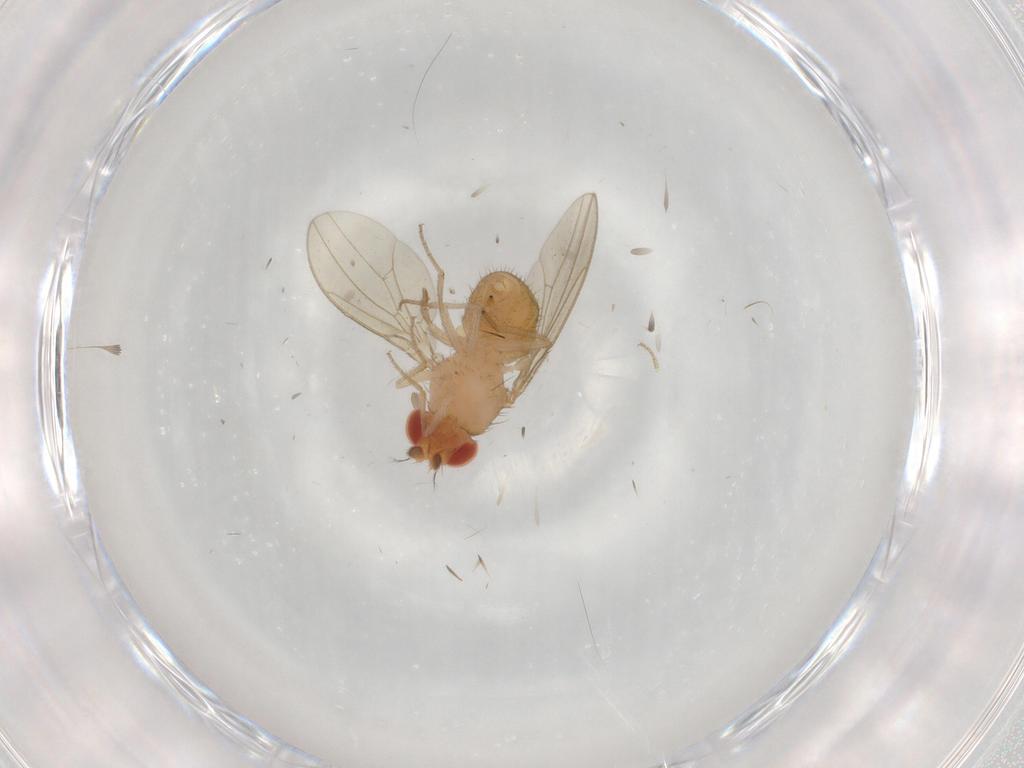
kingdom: Animalia
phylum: Arthropoda
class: Insecta
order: Diptera
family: Drosophilidae
